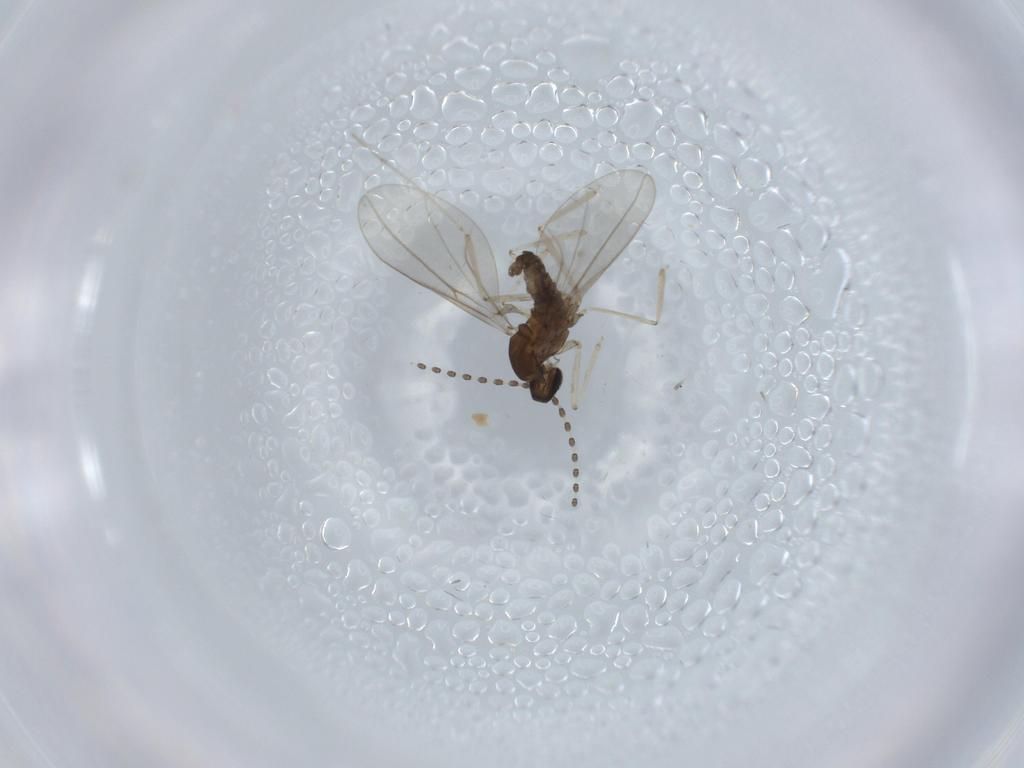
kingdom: Animalia
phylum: Arthropoda
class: Insecta
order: Diptera
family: Cecidomyiidae
